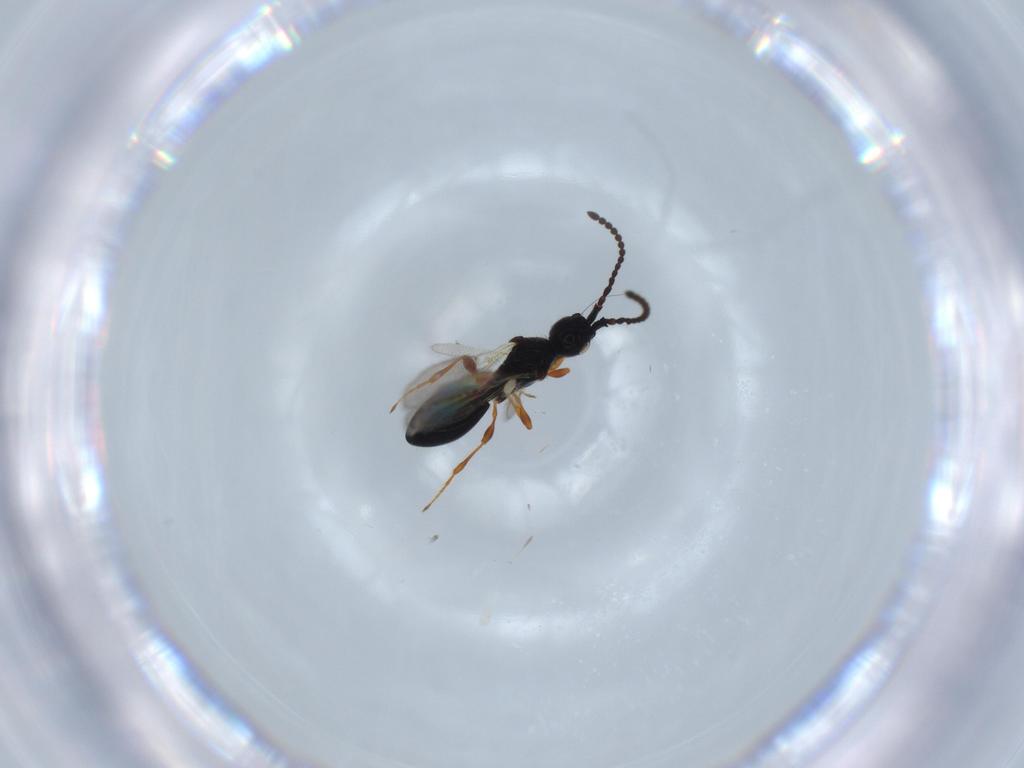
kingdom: Animalia
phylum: Arthropoda
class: Insecta
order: Hymenoptera
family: Diapriidae
